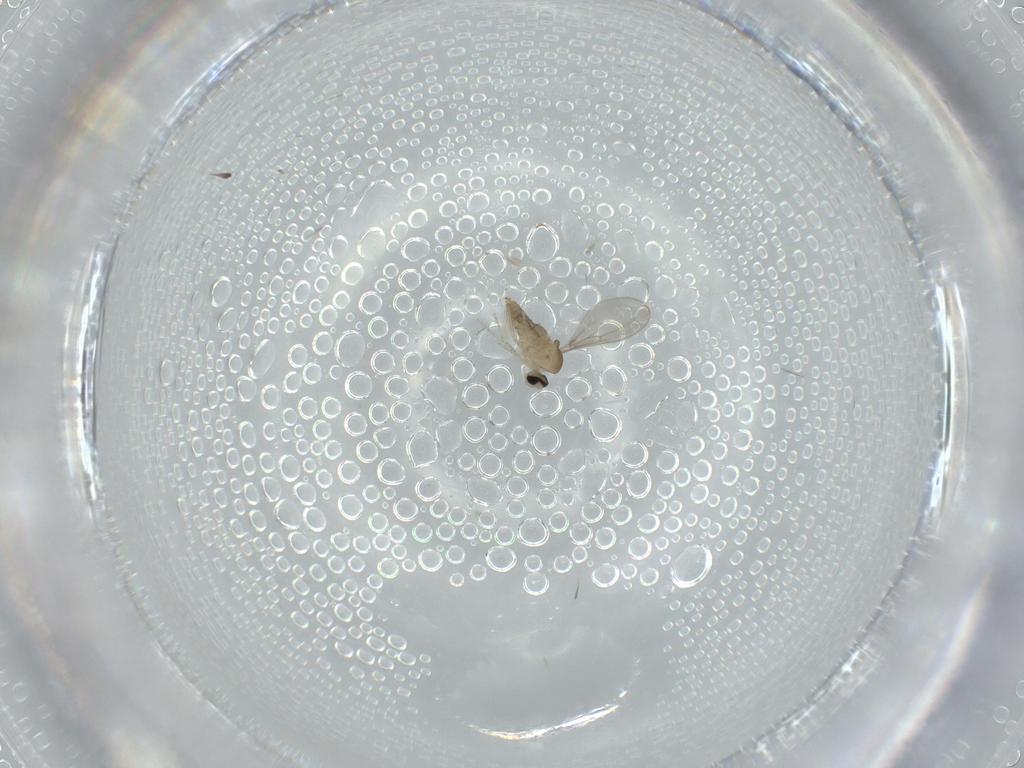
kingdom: Animalia
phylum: Arthropoda
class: Insecta
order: Diptera
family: Cecidomyiidae
